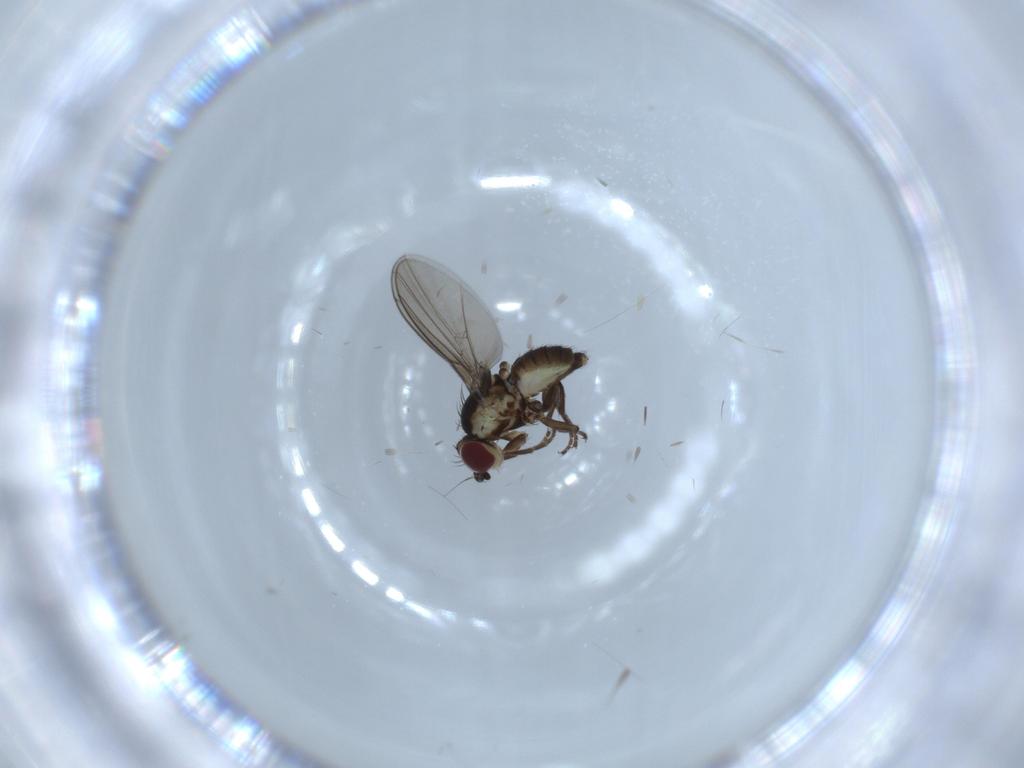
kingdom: Animalia
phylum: Arthropoda
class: Insecta
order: Diptera
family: Agromyzidae
